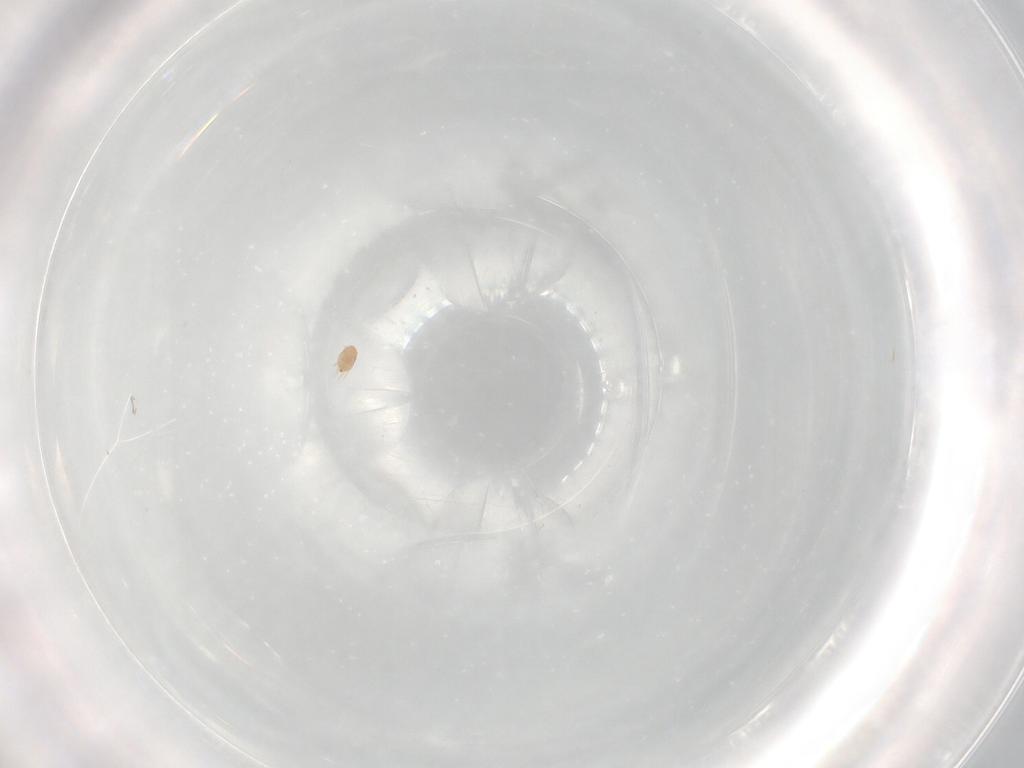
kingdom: Animalia
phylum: Arthropoda
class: Arachnida
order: Sarcoptiformes
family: Hemisarcoptidae
